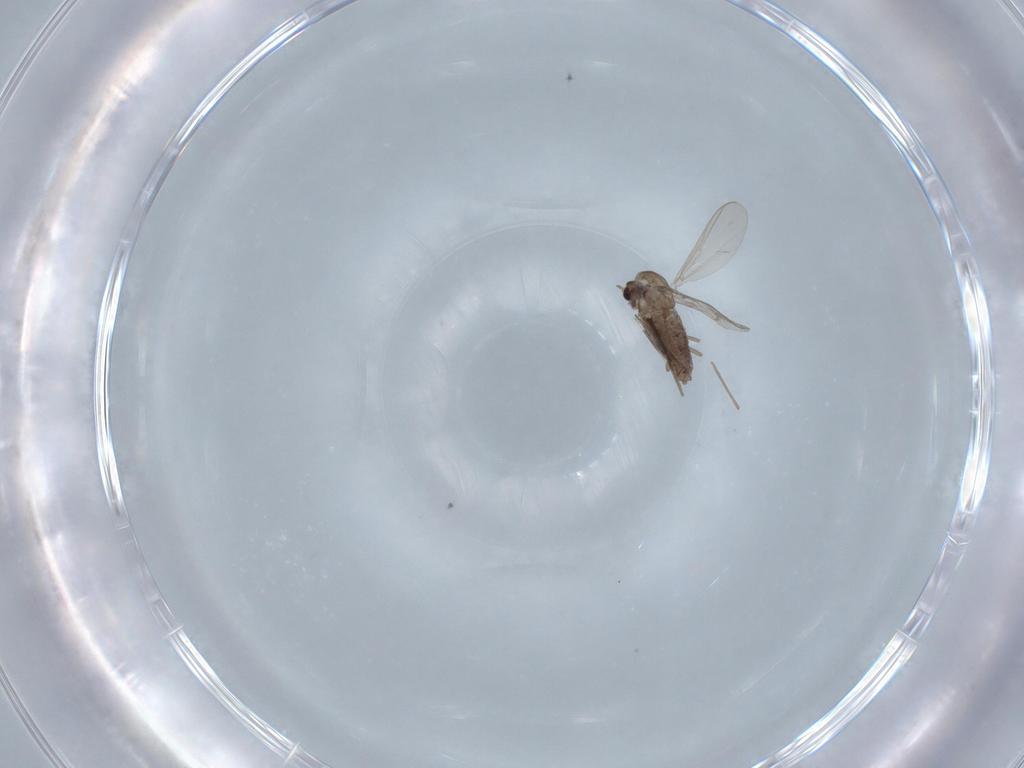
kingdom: Animalia
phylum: Arthropoda
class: Insecta
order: Diptera
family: Chironomidae
